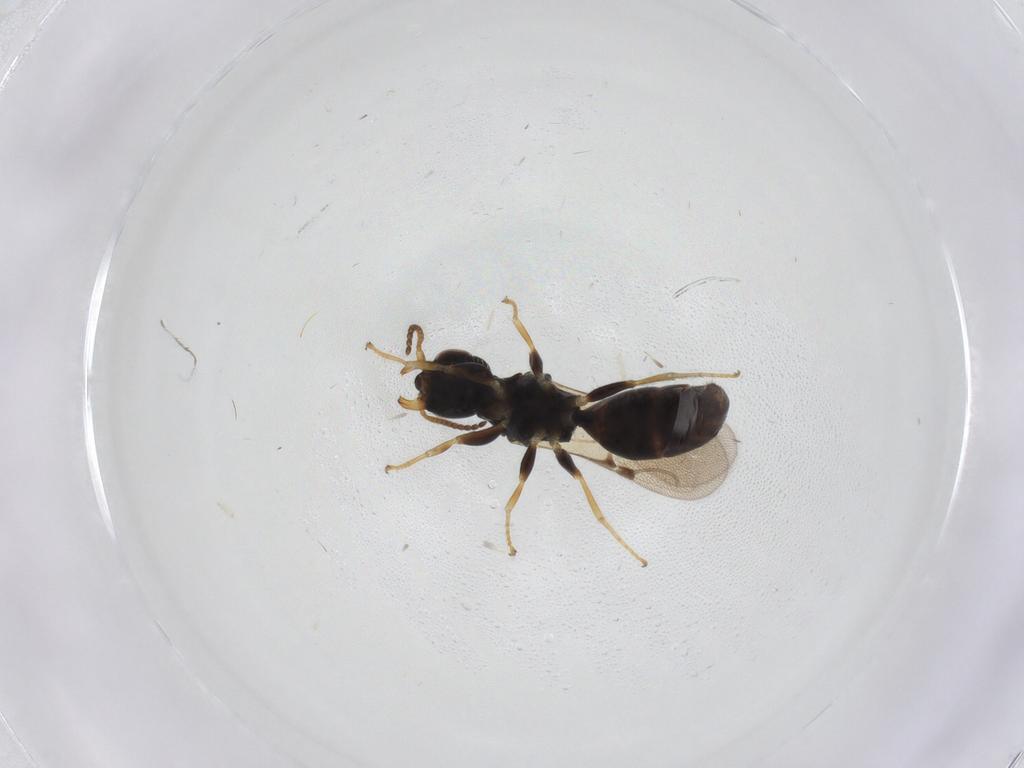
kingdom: Animalia
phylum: Arthropoda
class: Insecta
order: Hymenoptera
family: Bethylidae
